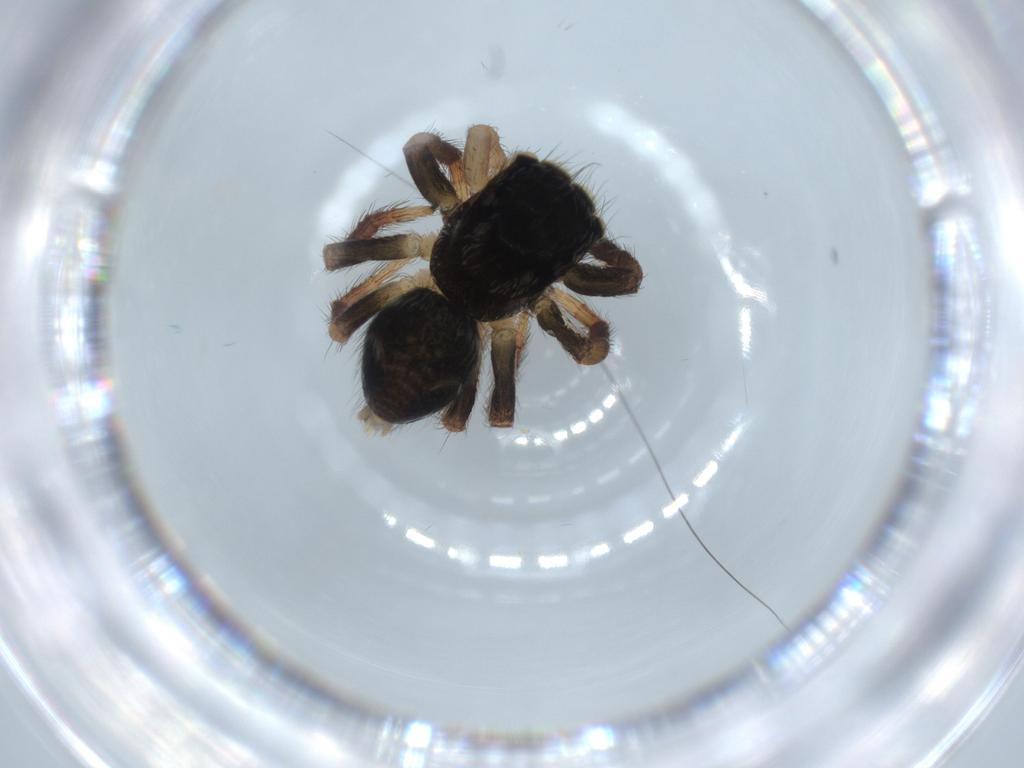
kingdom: Animalia
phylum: Arthropoda
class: Arachnida
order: Araneae
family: Salticidae
